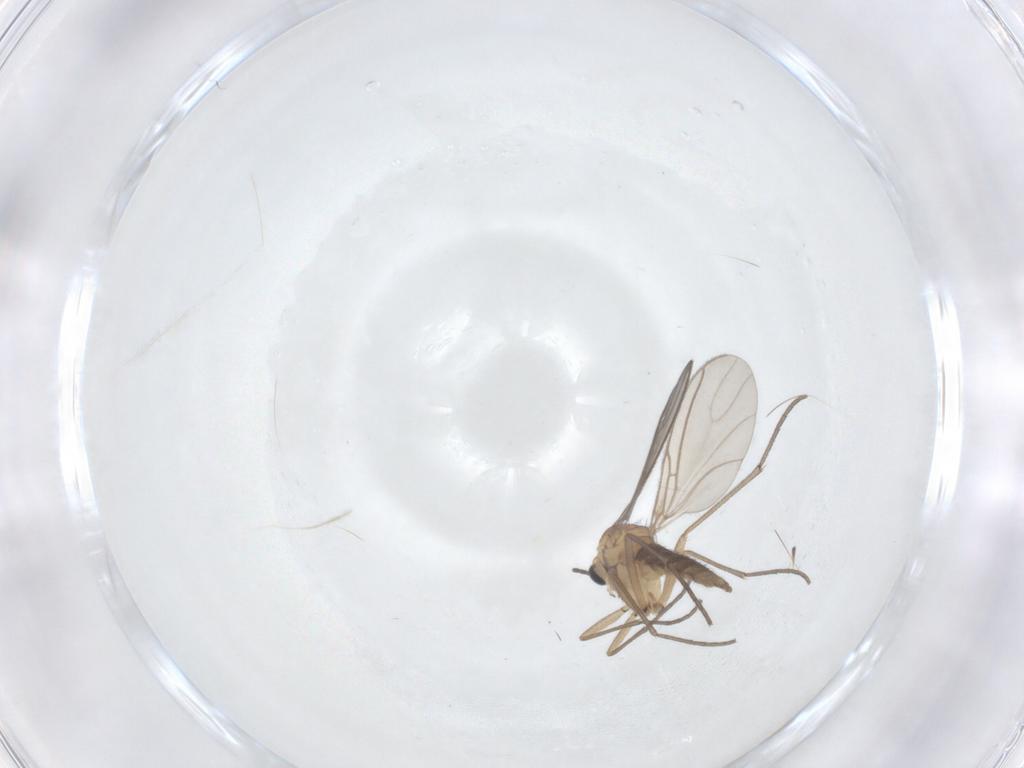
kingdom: Animalia
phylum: Arthropoda
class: Insecta
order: Diptera
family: Sciaridae
